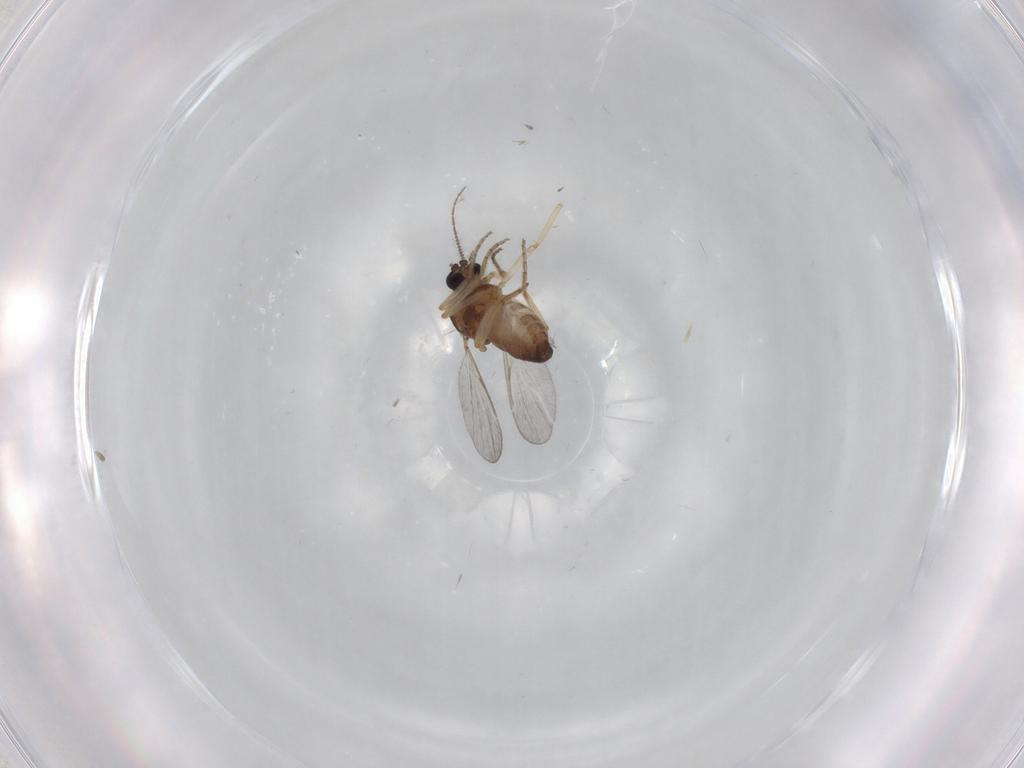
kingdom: Animalia
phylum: Arthropoda
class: Insecta
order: Diptera
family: Ceratopogonidae
